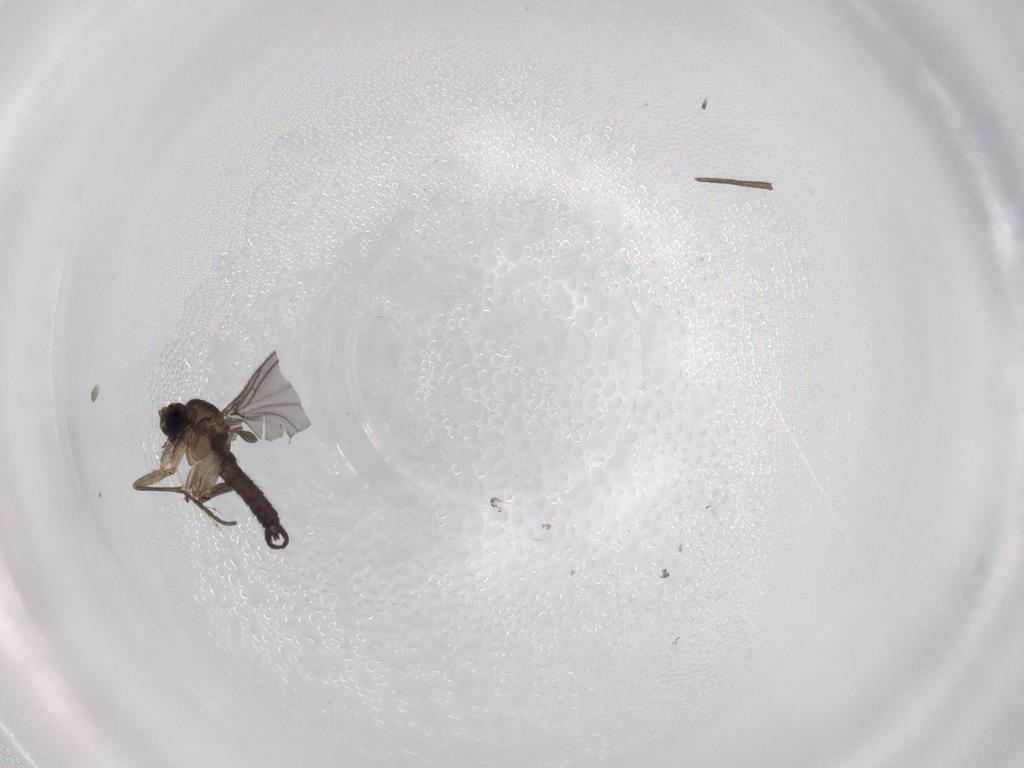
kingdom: Animalia
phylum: Arthropoda
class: Insecta
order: Diptera
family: Sciaridae
